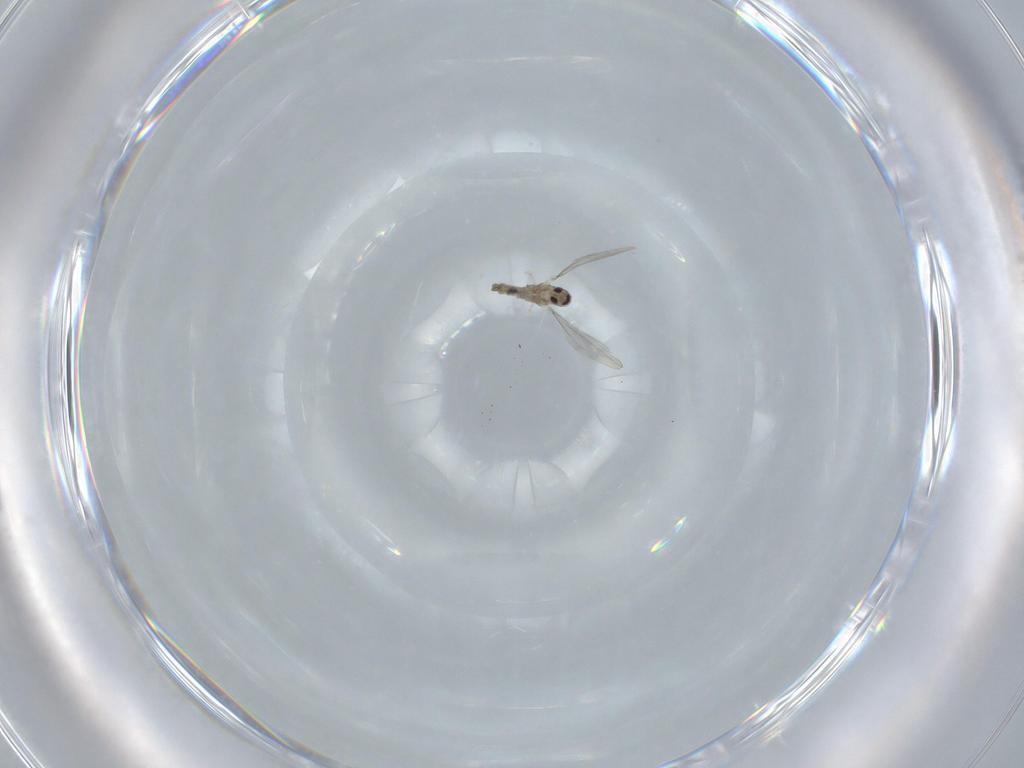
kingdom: Animalia
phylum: Arthropoda
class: Insecta
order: Diptera
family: Cecidomyiidae
